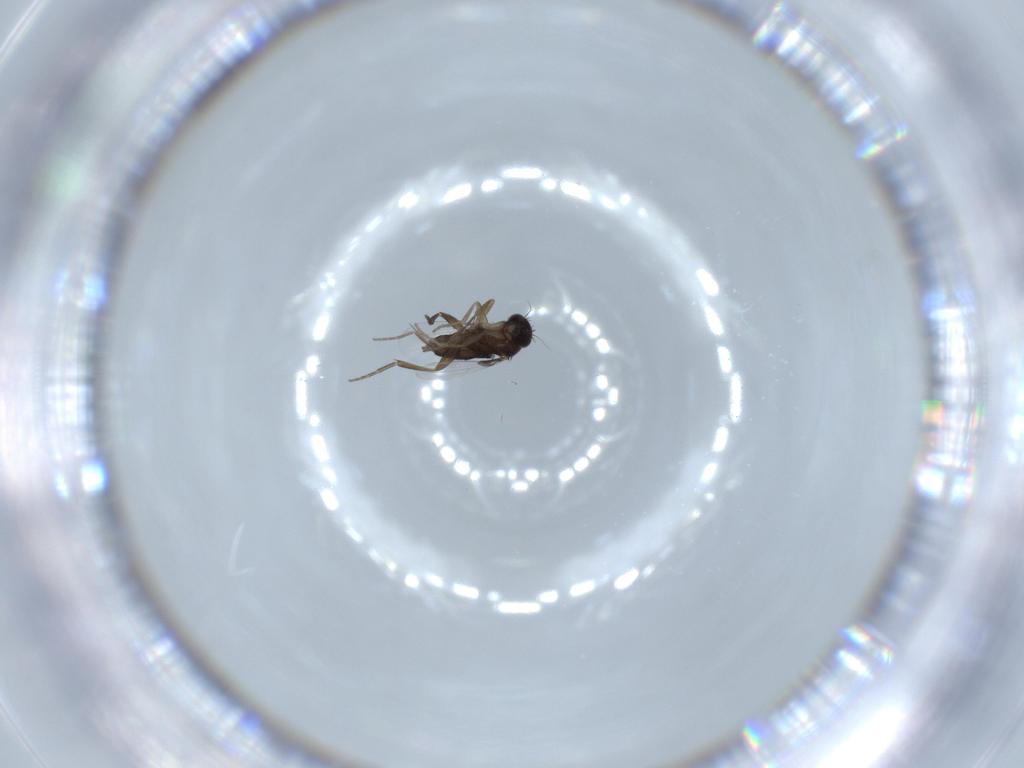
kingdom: Animalia
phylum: Arthropoda
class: Insecta
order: Diptera
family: Phoridae
